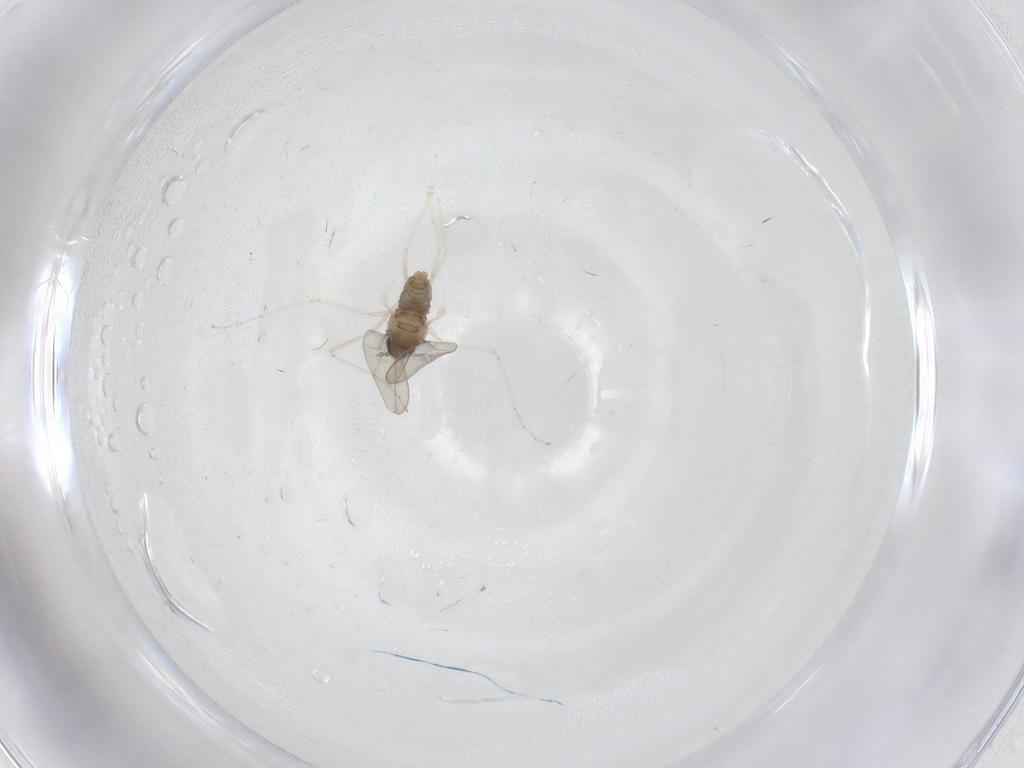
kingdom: Animalia
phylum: Arthropoda
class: Insecta
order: Diptera
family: Cecidomyiidae
